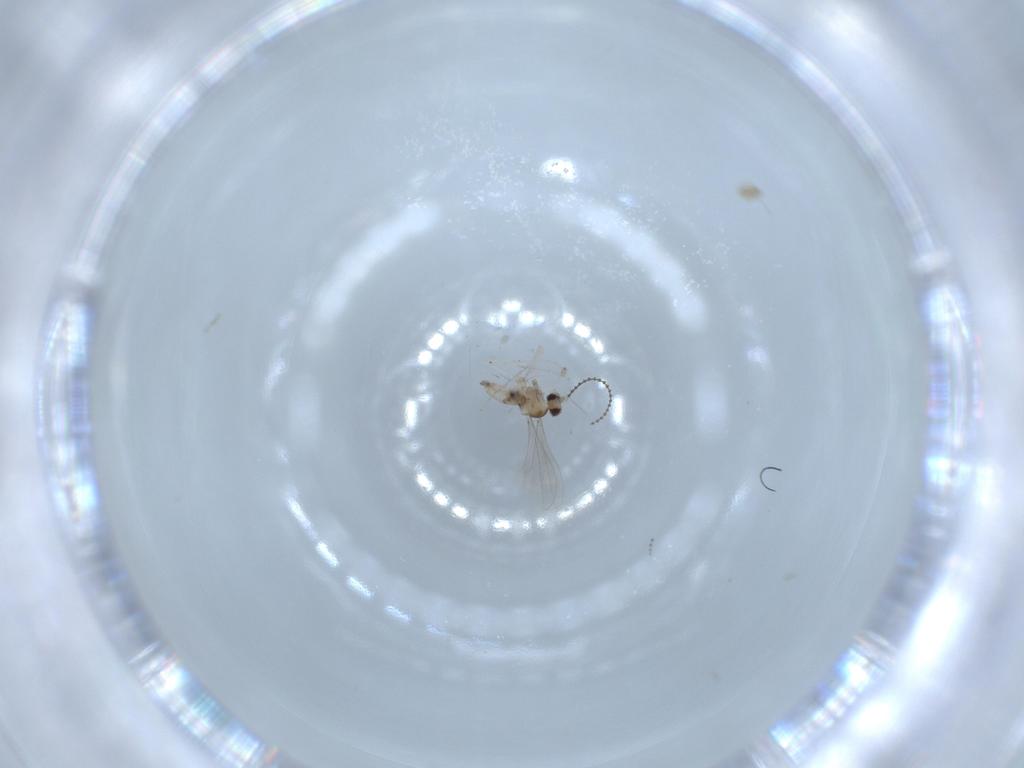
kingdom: Animalia
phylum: Arthropoda
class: Insecta
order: Diptera
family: Cecidomyiidae
